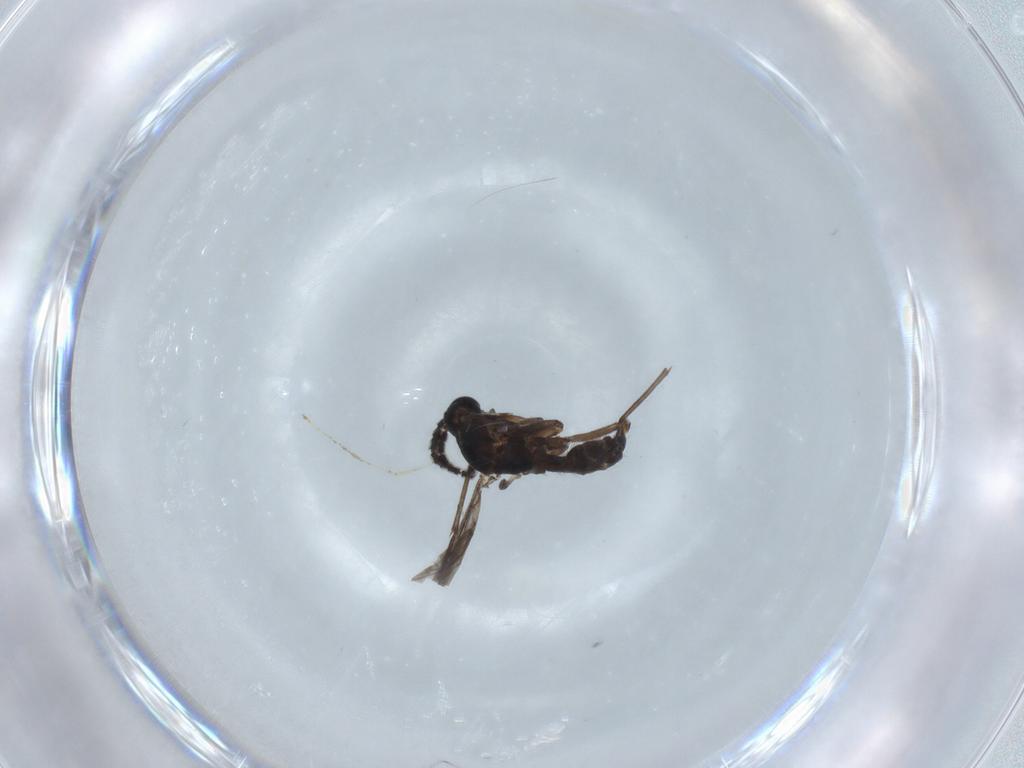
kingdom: Animalia
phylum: Arthropoda
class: Insecta
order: Diptera
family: Cecidomyiidae
